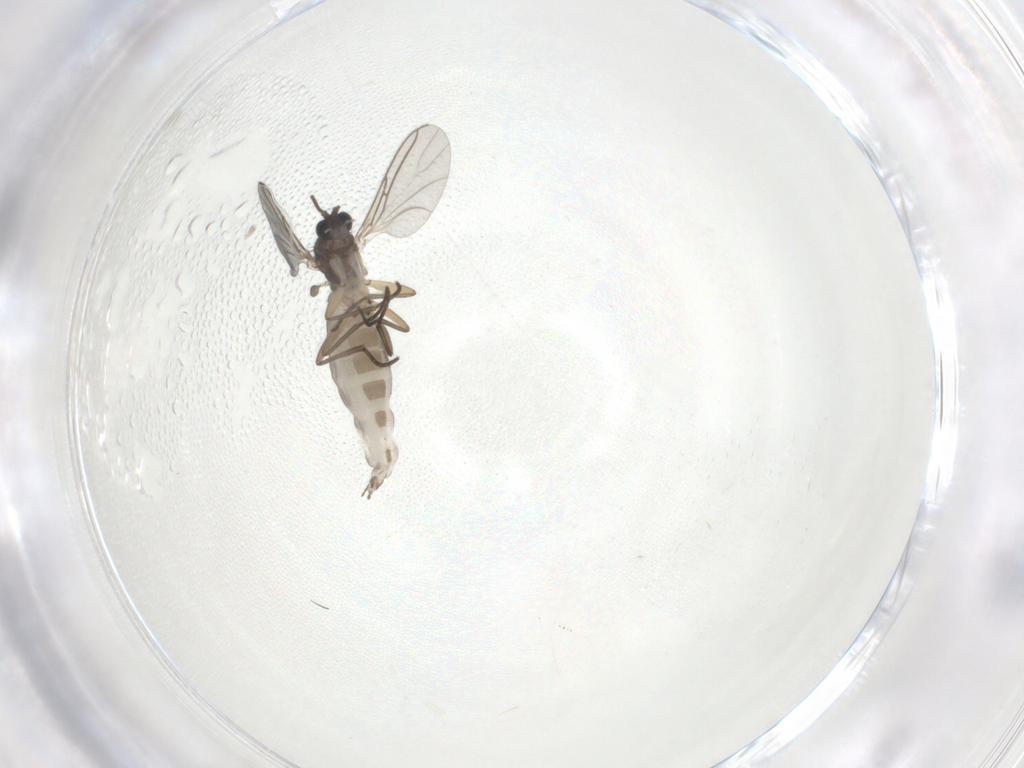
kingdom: Animalia
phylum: Arthropoda
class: Insecta
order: Diptera
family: Sciaridae
